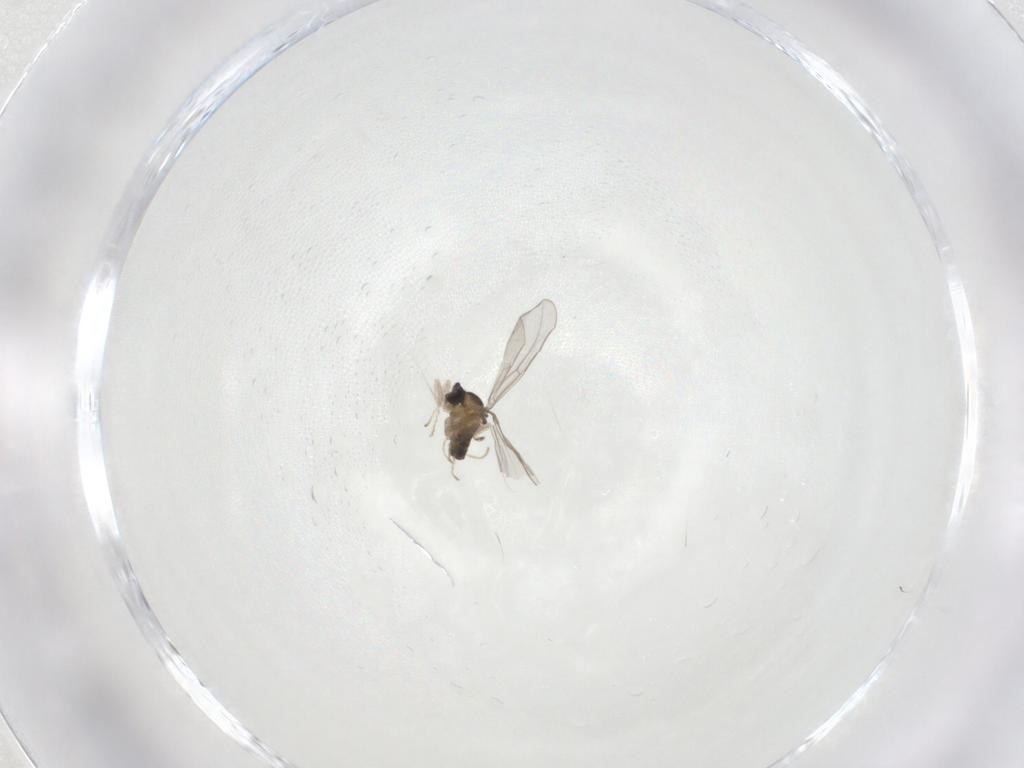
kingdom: Animalia
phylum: Arthropoda
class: Insecta
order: Diptera
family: Cecidomyiidae
